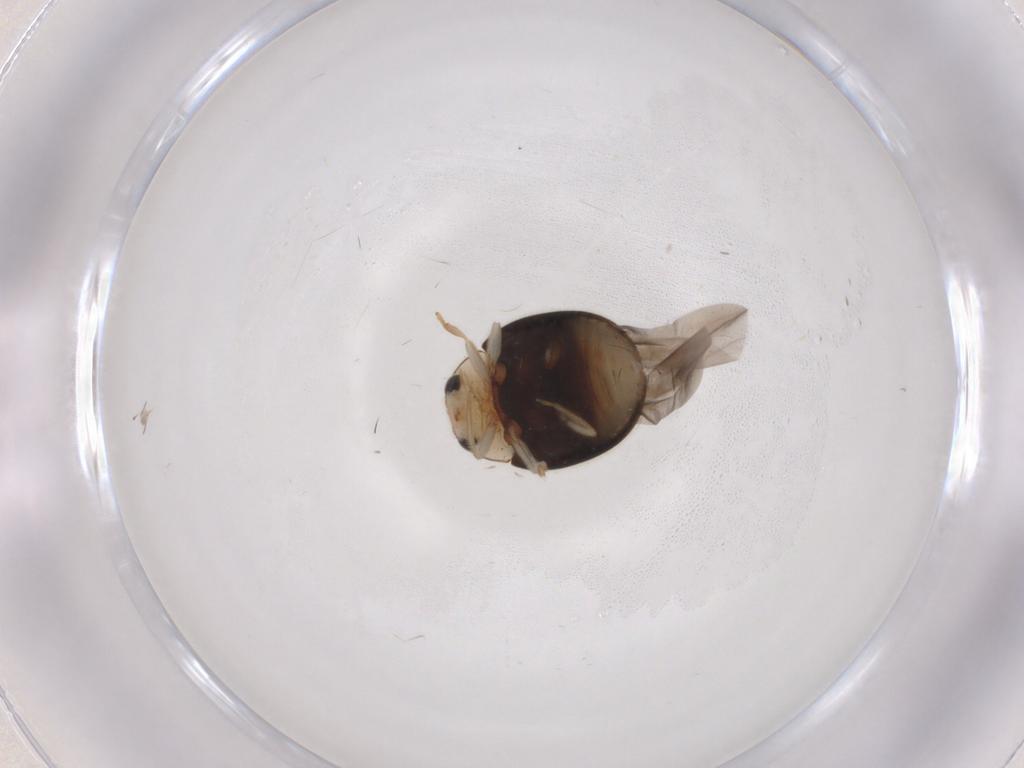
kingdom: Animalia
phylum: Arthropoda
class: Insecta
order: Coleoptera
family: Coccinellidae
